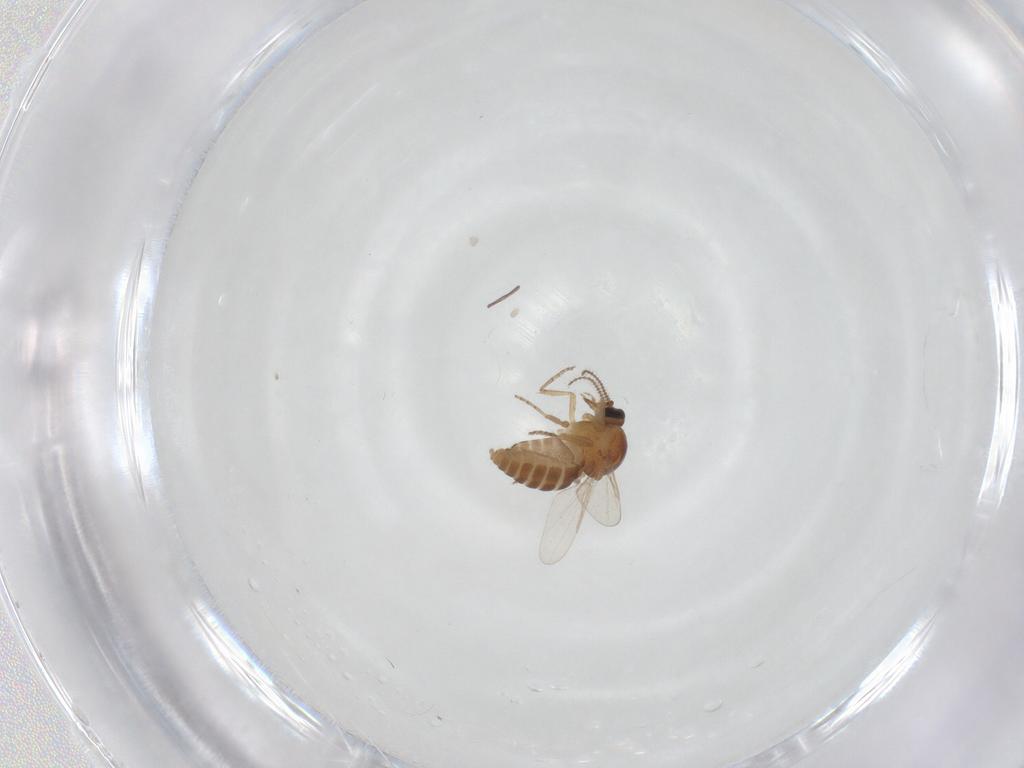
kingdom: Animalia
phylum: Arthropoda
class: Insecta
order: Diptera
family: Ceratopogonidae
